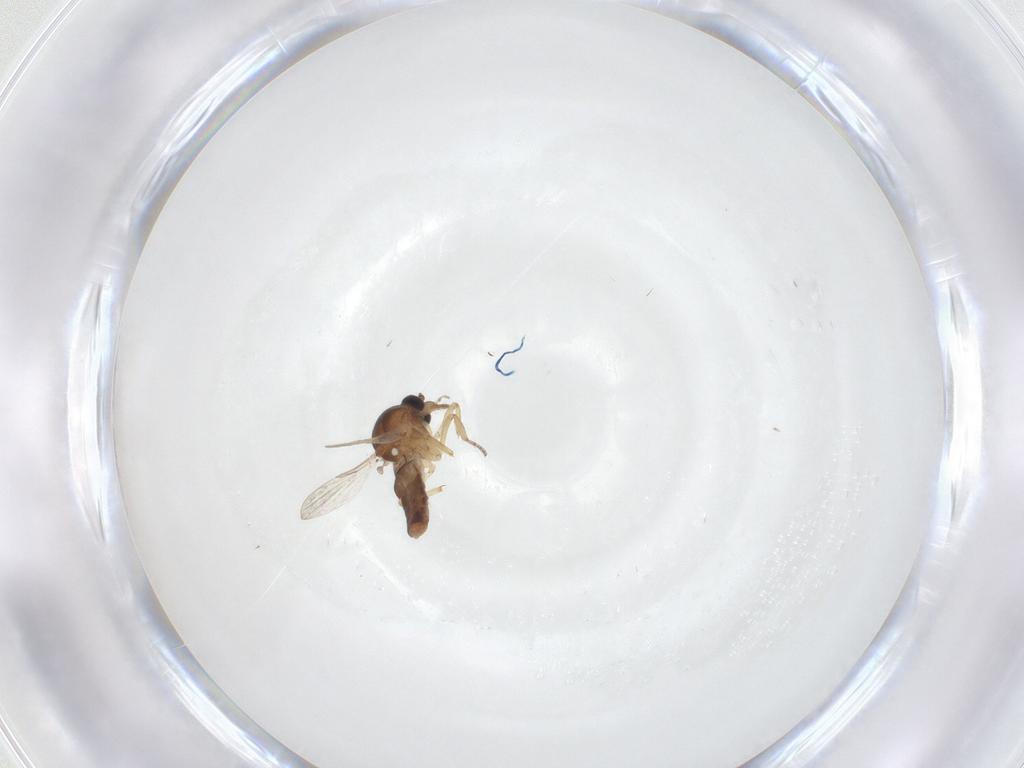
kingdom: Animalia
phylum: Arthropoda
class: Insecta
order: Diptera
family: Ceratopogonidae
